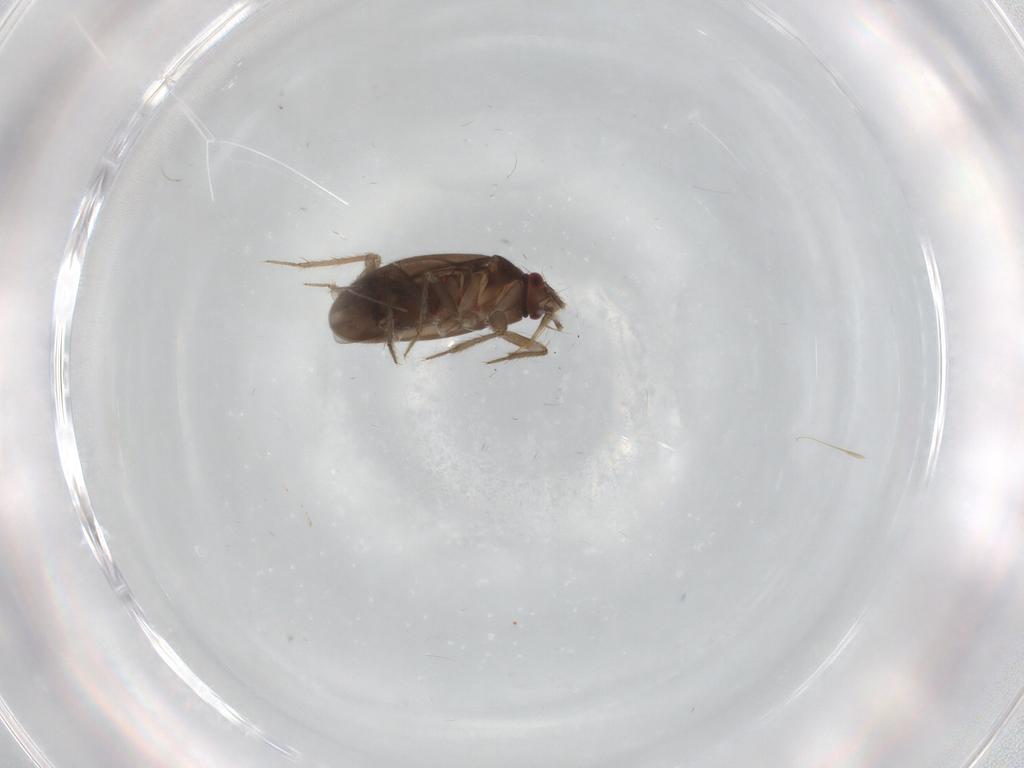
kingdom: Animalia
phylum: Arthropoda
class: Insecta
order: Hemiptera
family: Ceratocombidae
